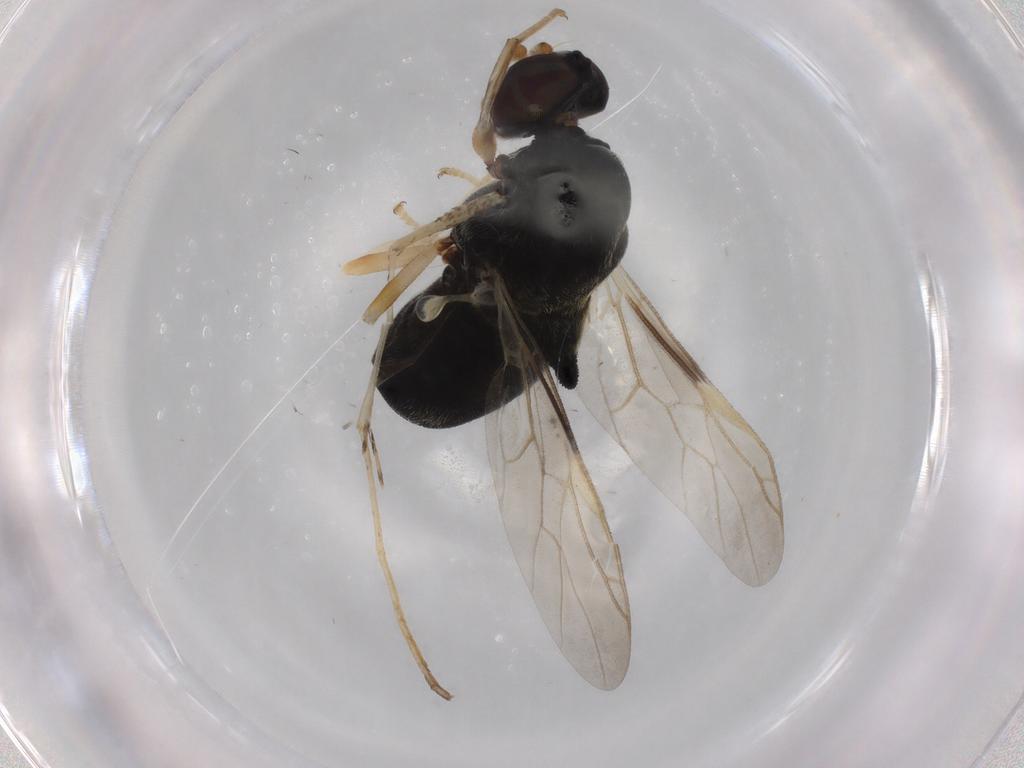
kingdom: Animalia
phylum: Arthropoda
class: Insecta
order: Diptera
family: Stratiomyidae
